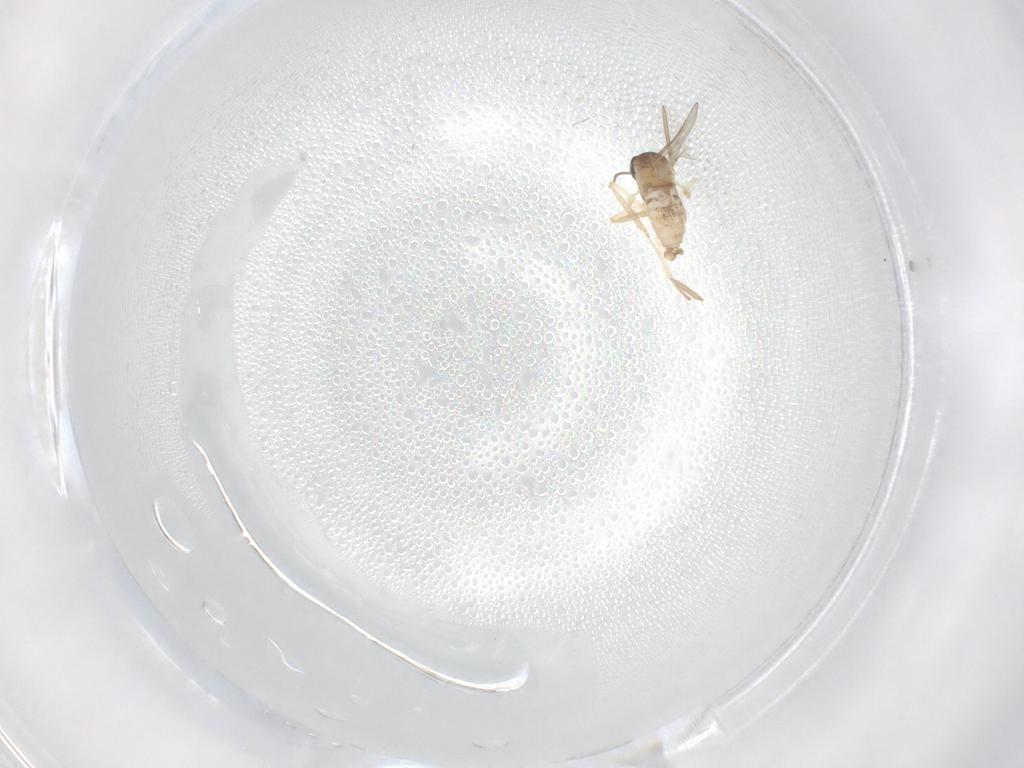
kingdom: Animalia
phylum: Arthropoda
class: Insecta
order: Diptera
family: Cecidomyiidae
